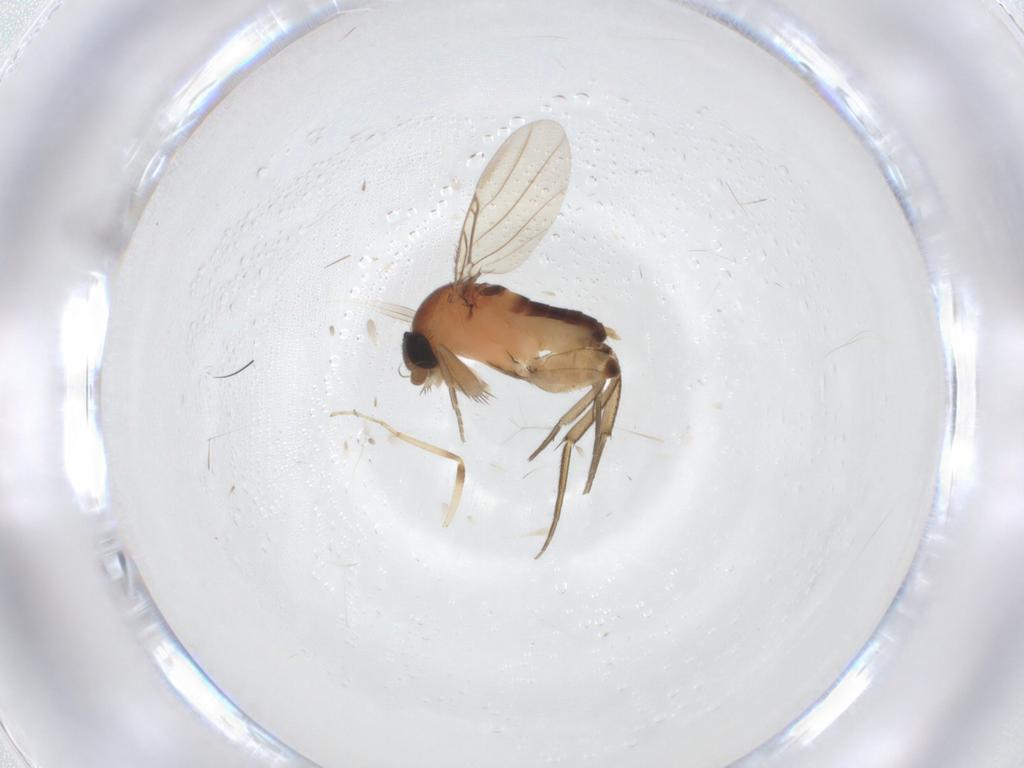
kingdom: Animalia
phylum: Arthropoda
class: Insecta
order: Diptera
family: Phoridae
